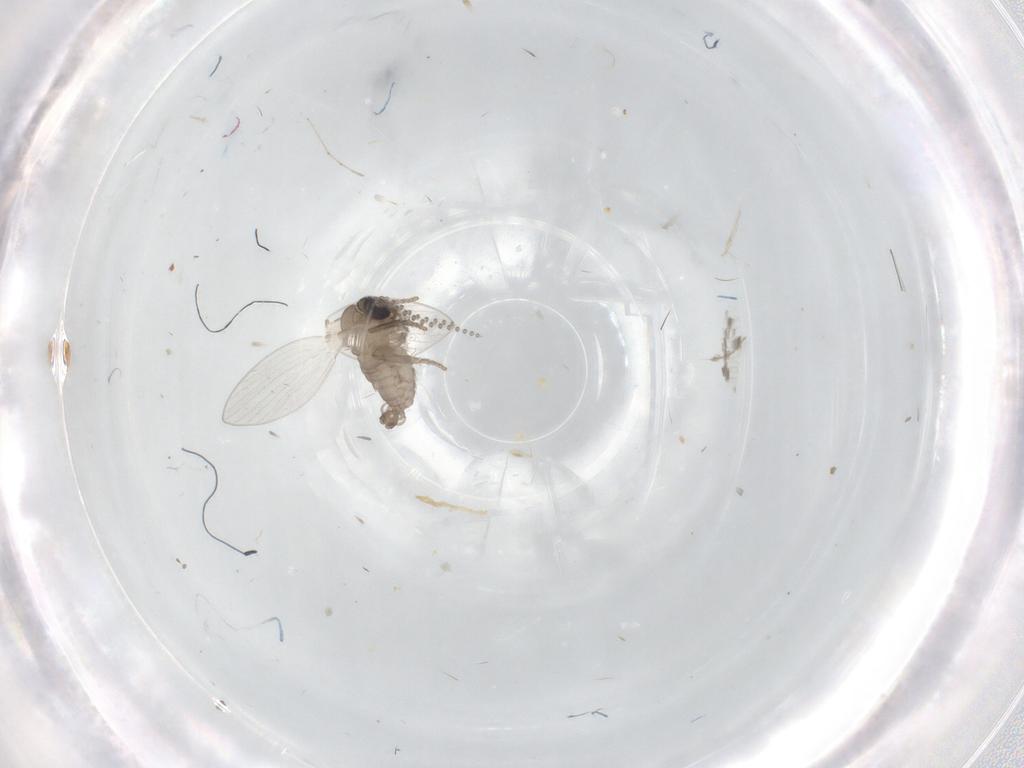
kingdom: Animalia
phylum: Arthropoda
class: Insecta
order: Diptera
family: Psychodidae
